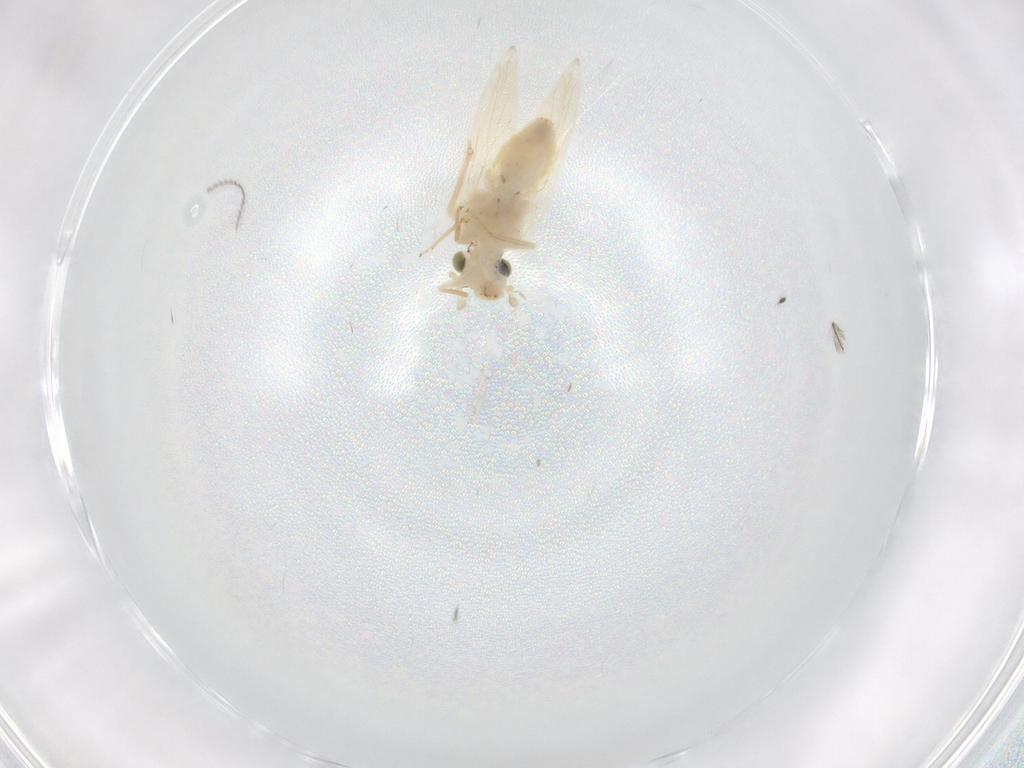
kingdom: Animalia
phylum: Arthropoda
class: Insecta
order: Psocodea
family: Lepidopsocidae
